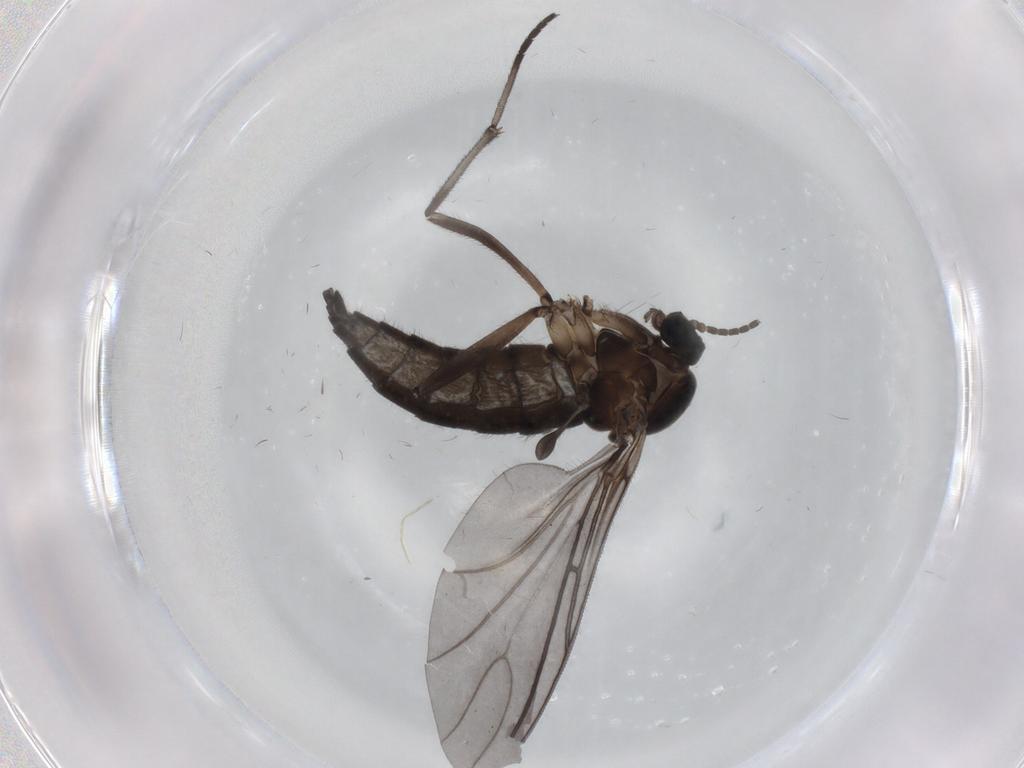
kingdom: Animalia
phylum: Arthropoda
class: Insecta
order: Diptera
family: Sciaridae
